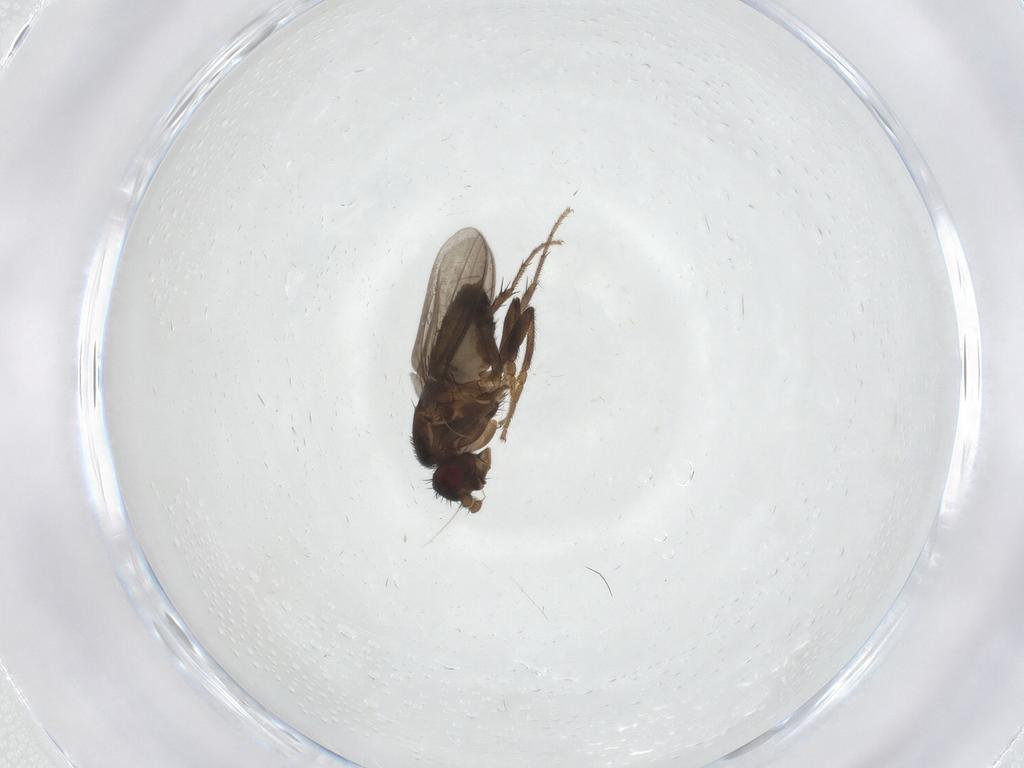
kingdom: Animalia
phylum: Arthropoda
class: Insecta
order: Diptera
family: Sphaeroceridae
